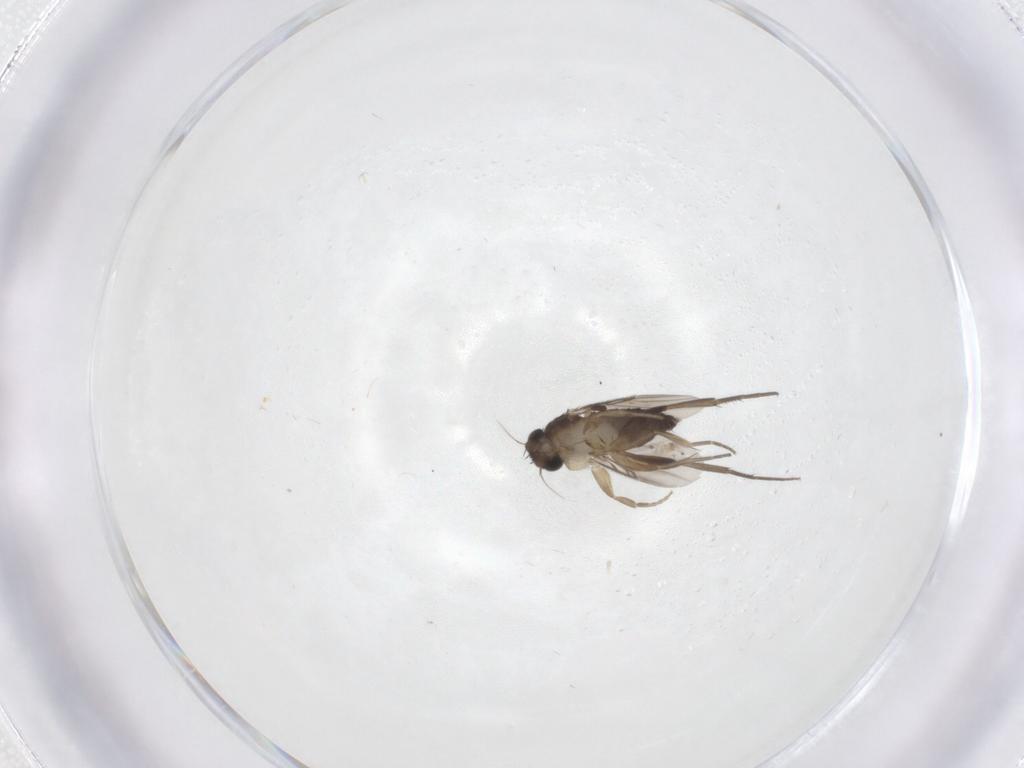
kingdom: Animalia
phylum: Arthropoda
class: Insecta
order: Diptera
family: Phoridae
